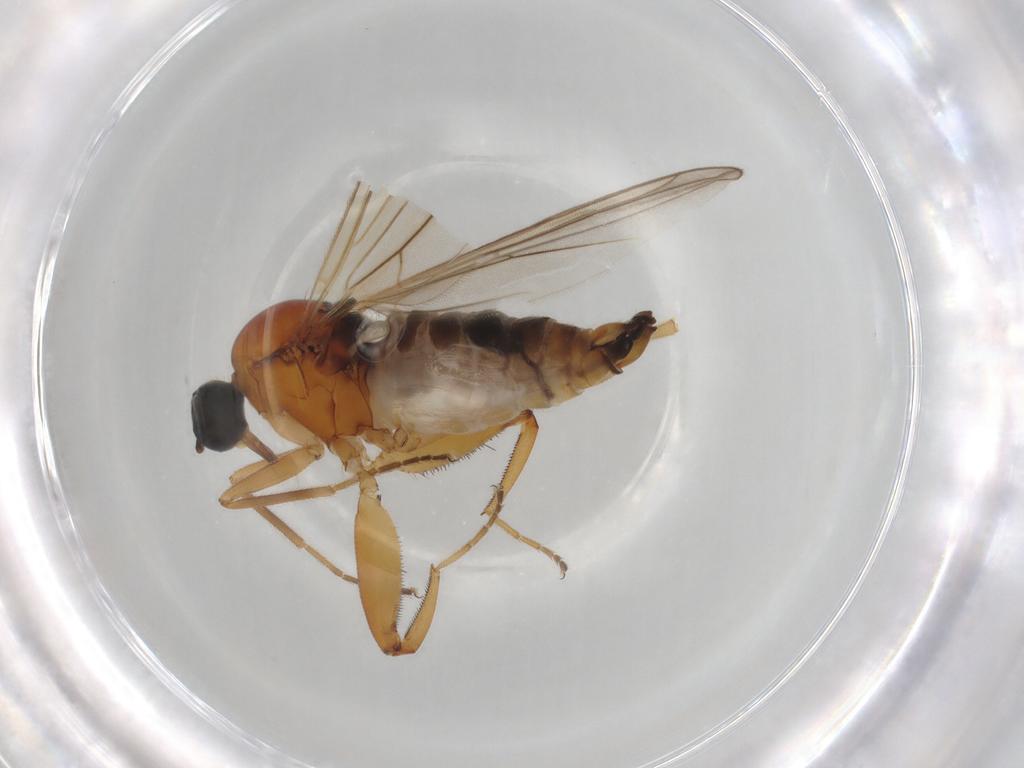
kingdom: Animalia
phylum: Arthropoda
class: Insecta
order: Diptera
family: Hybotidae
